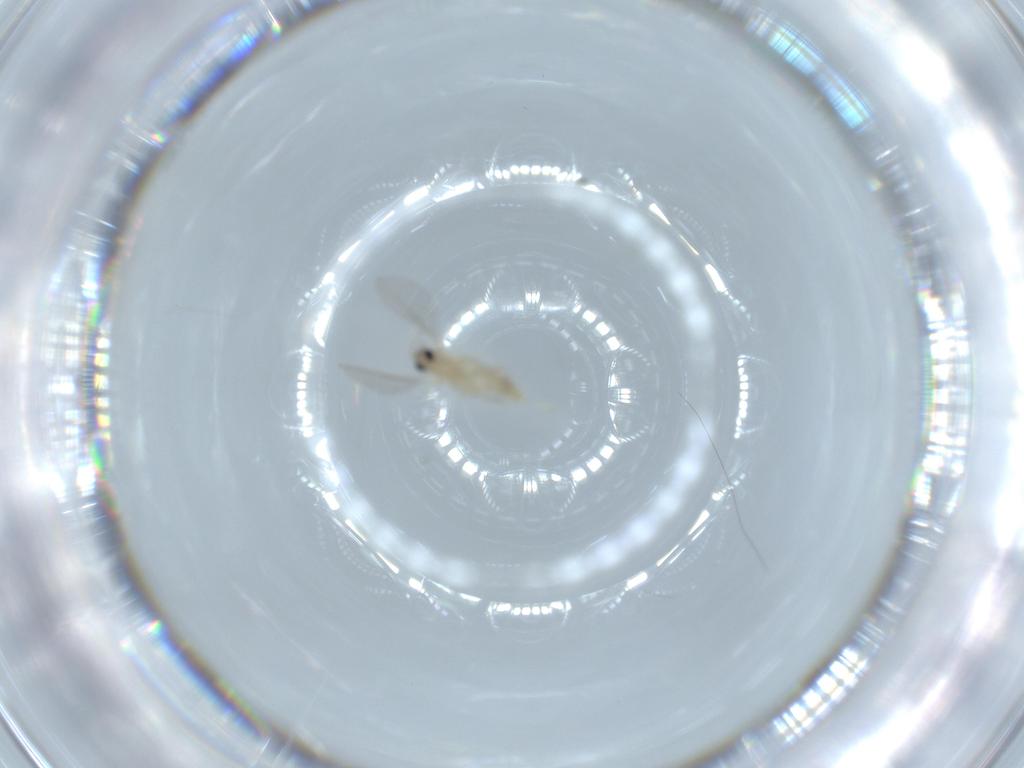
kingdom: Animalia
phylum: Arthropoda
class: Insecta
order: Diptera
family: Cecidomyiidae
